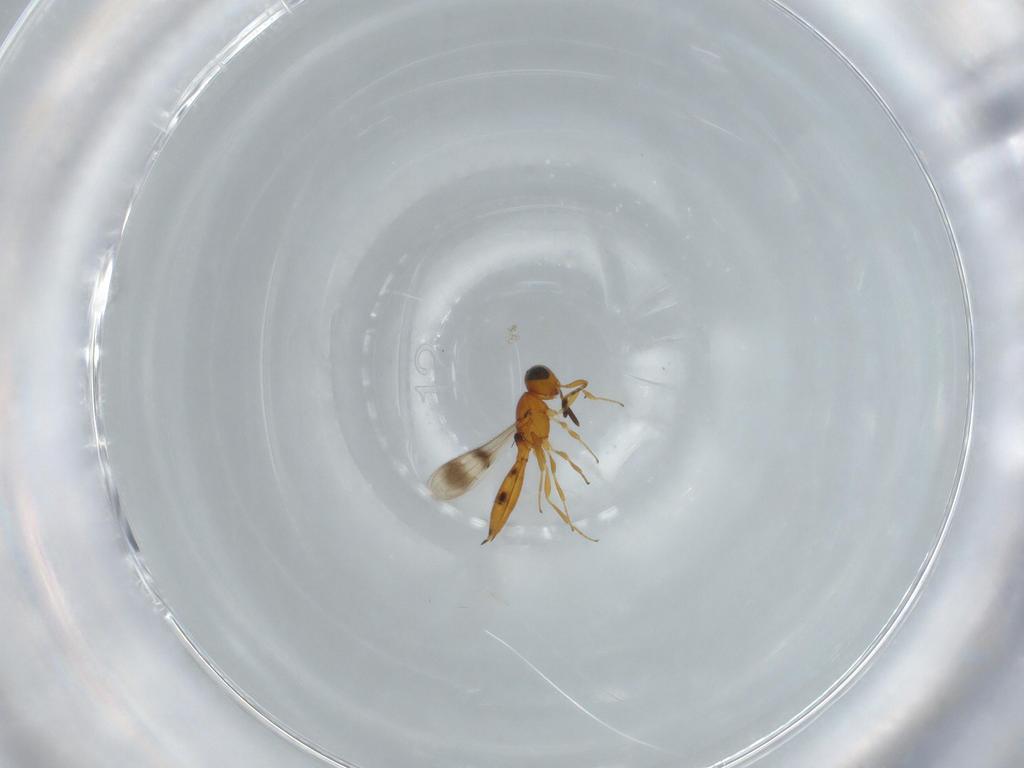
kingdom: Animalia
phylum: Arthropoda
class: Insecta
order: Hymenoptera
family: Scelionidae
